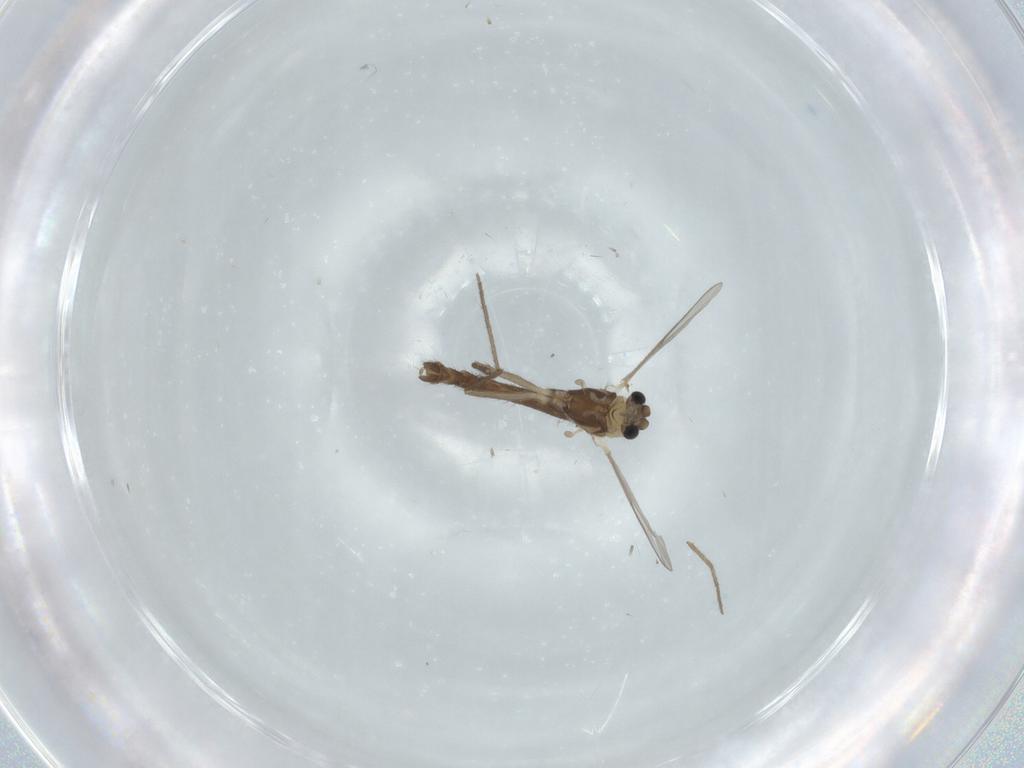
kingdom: Animalia
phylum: Arthropoda
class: Insecta
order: Diptera
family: Chironomidae
